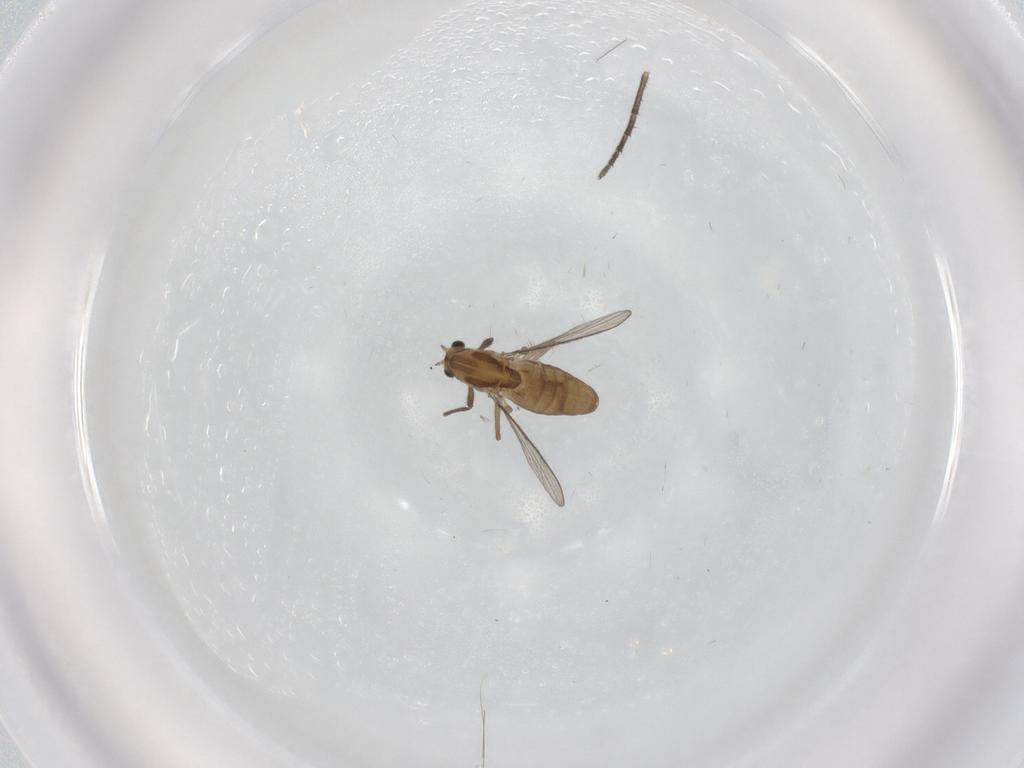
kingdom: Animalia
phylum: Arthropoda
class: Insecta
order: Diptera
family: Chironomidae
